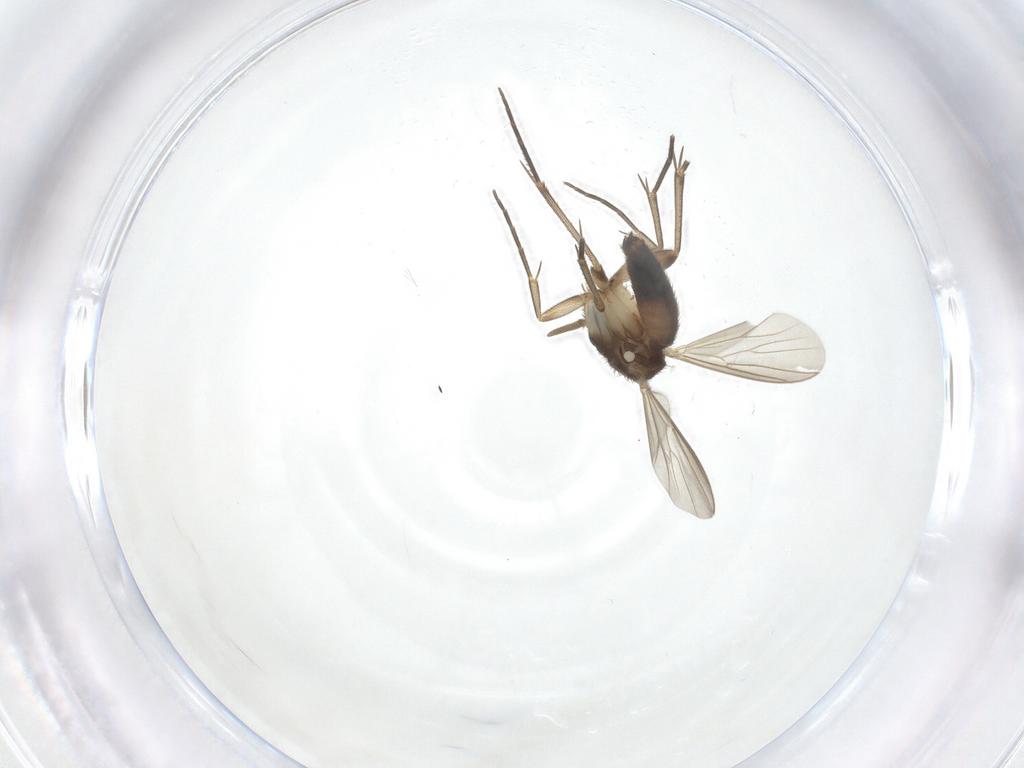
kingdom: Animalia
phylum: Arthropoda
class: Insecta
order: Diptera
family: Mycetophilidae
